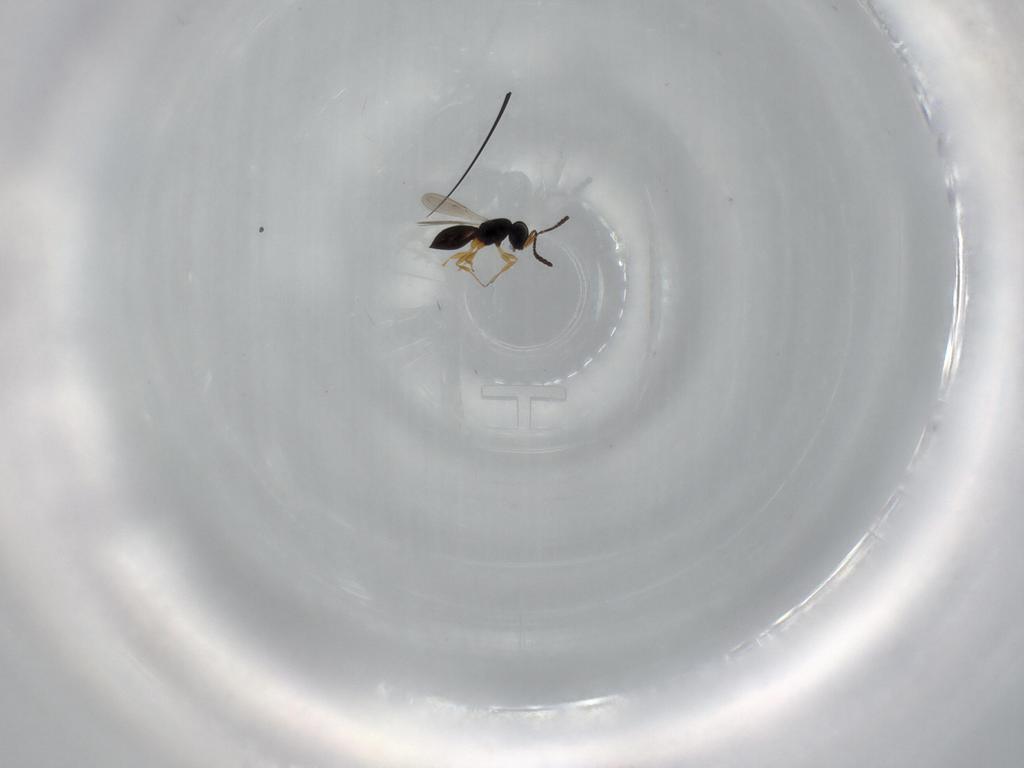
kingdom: Animalia
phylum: Arthropoda
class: Insecta
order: Hymenoptera
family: Scelionidae
